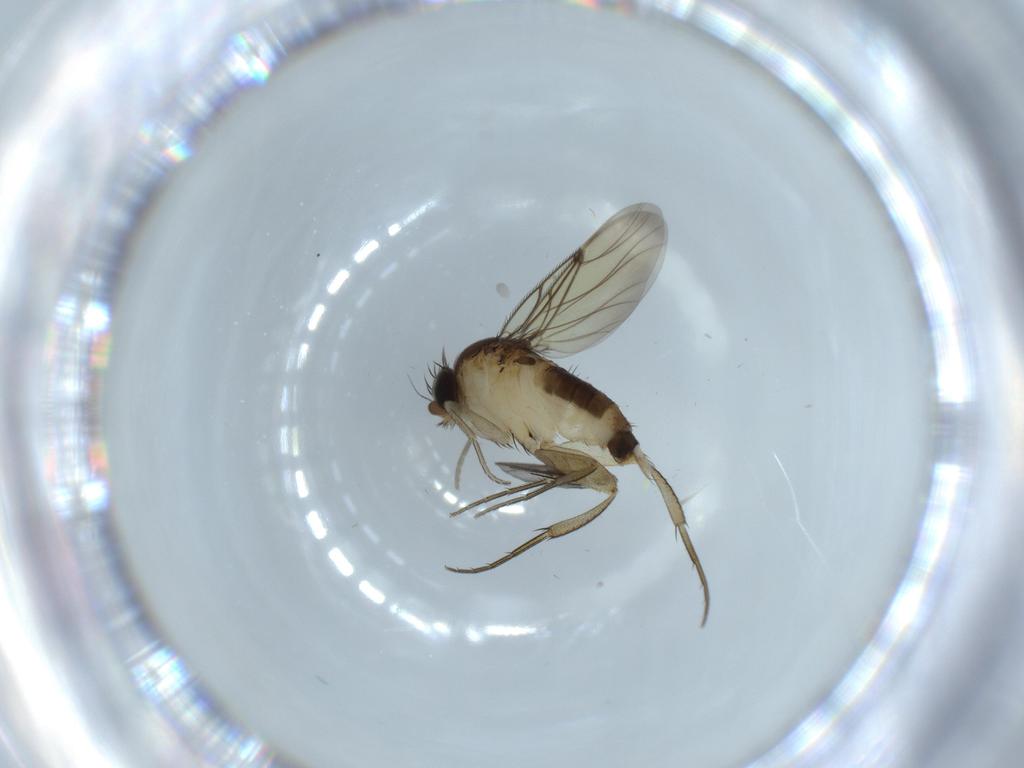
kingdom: Animalia
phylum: Arthropoda
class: Insecta
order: Diptera
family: Phoridae
